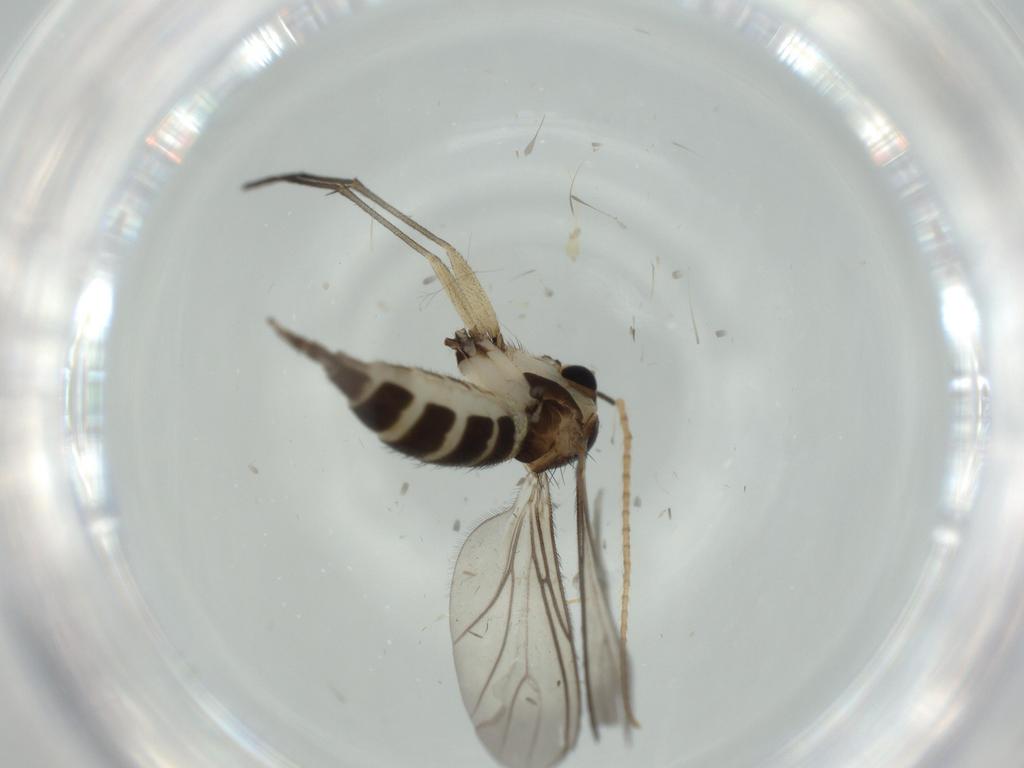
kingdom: Animalia
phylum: Arthropoda
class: Insecta
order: Diptera
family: Sciaridae
